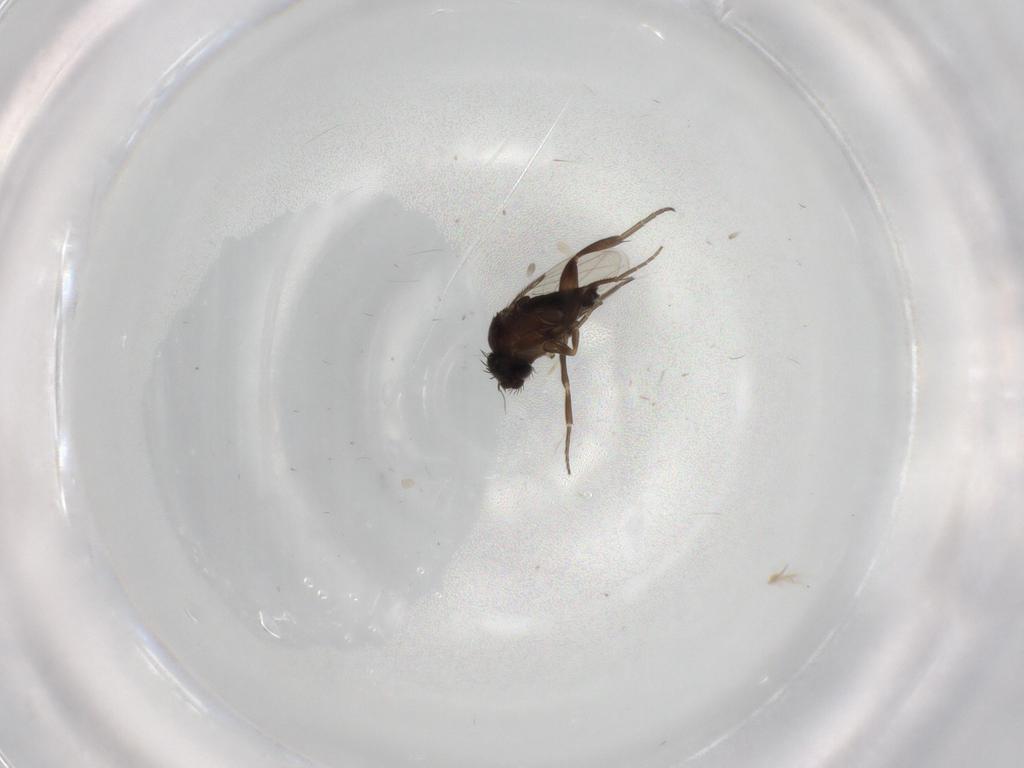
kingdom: Animalia
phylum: Arthropoda
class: Insecta
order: Diptera
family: Phoridae
